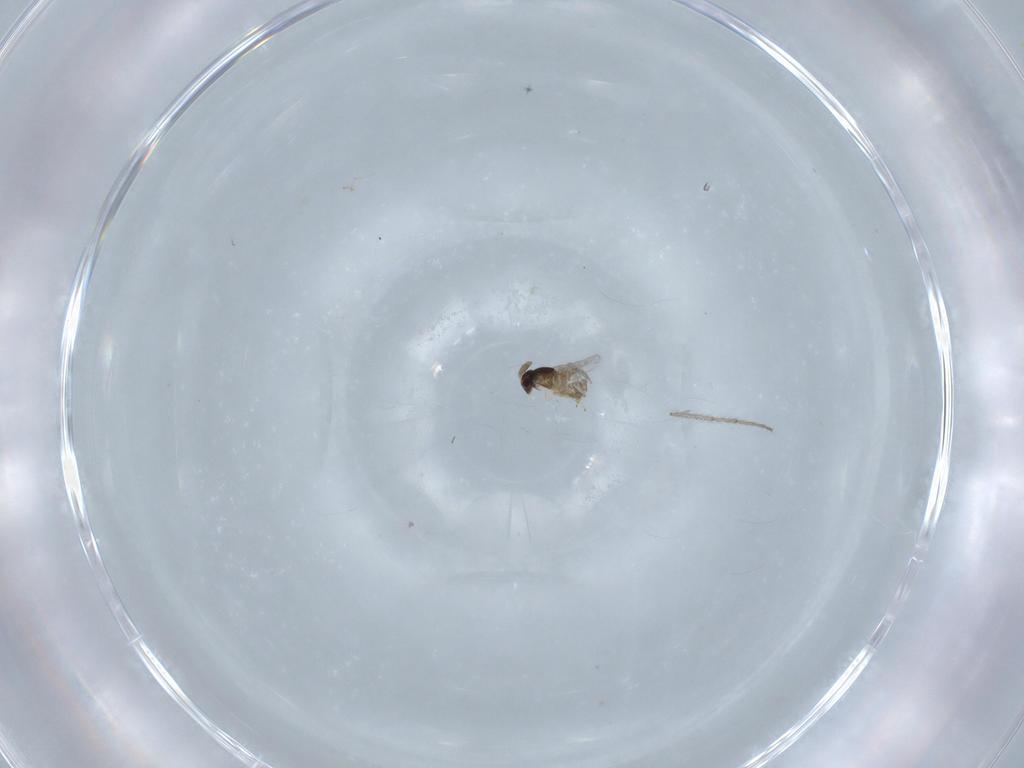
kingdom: Animalia
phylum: Arthropoda
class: Insecta
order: Hymenoptera
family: Encyrtidae
